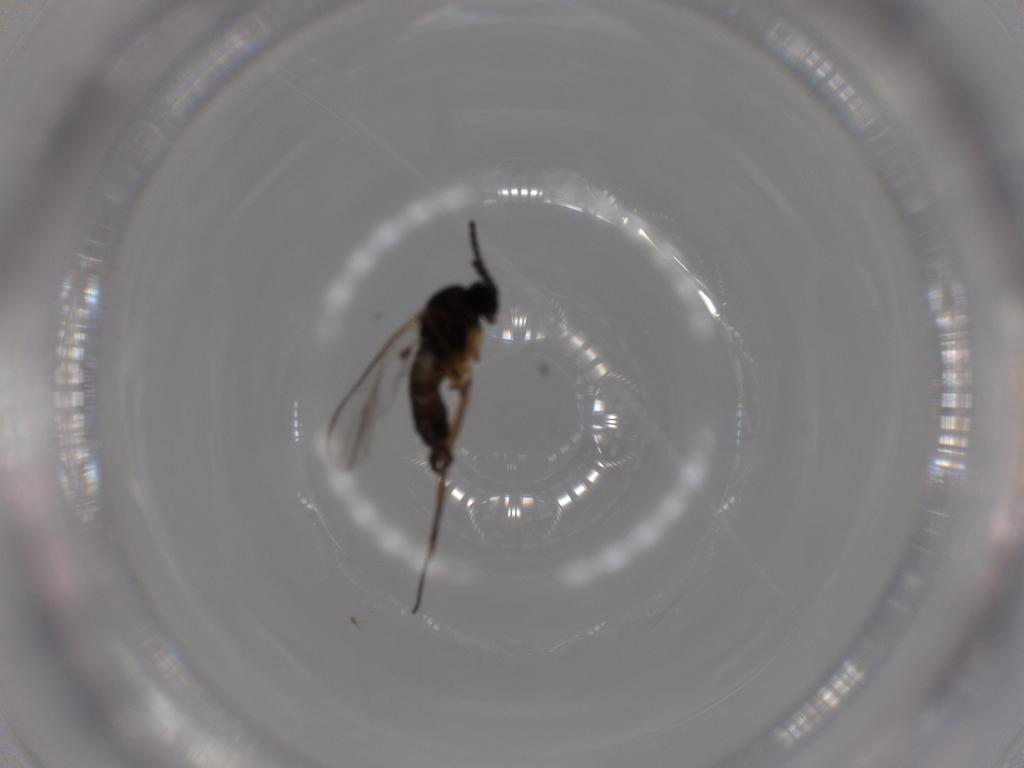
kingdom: Animalia
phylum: Arthropoda
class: Insecta
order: Diptera
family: Sciaridae
